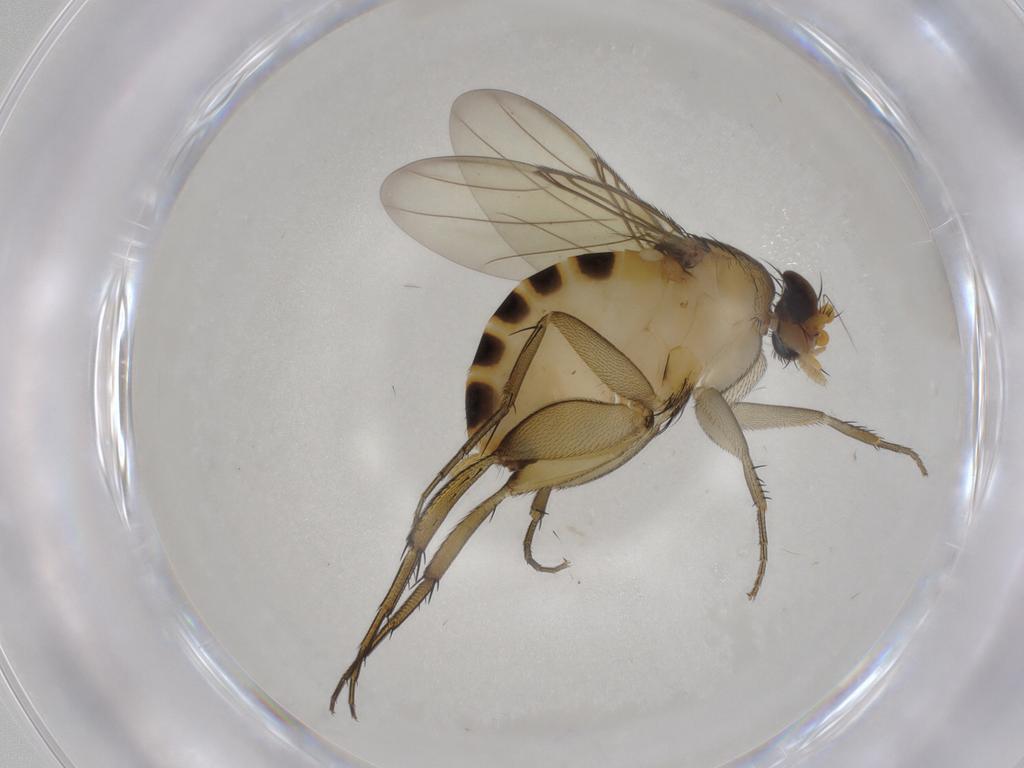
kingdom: Animalia
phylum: Arthropoda
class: Insecta
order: Diptera
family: Phoridae
